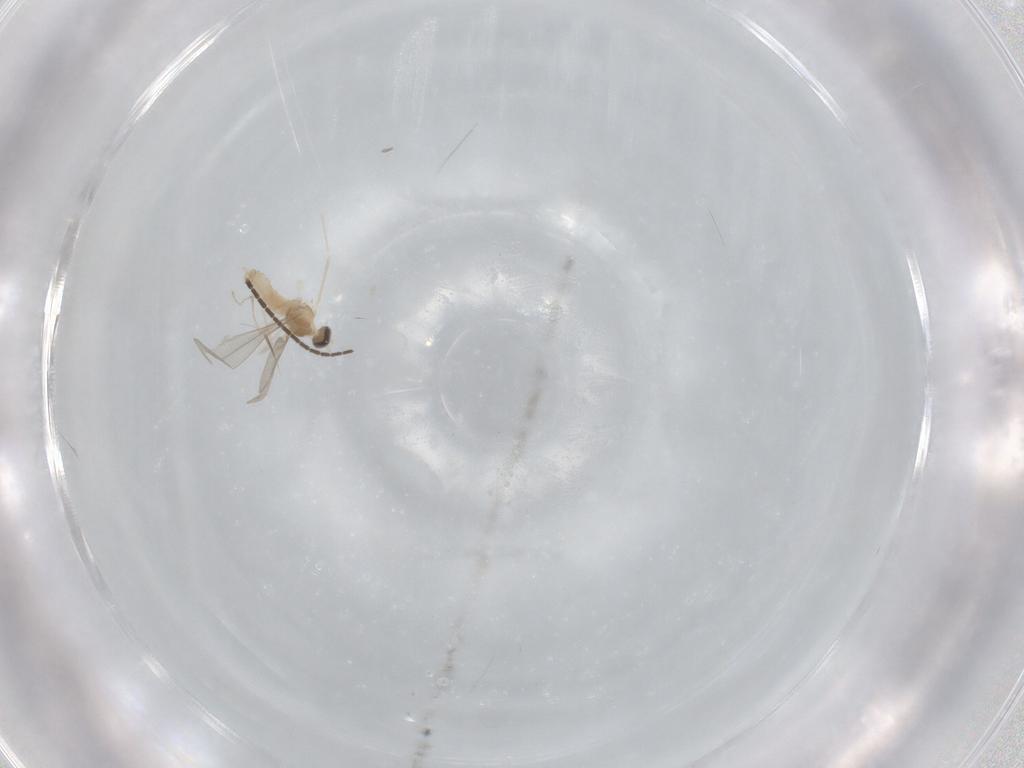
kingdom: Animalia
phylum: Arthropoda
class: Insecta
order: Diptera
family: Cecidomyiidae
